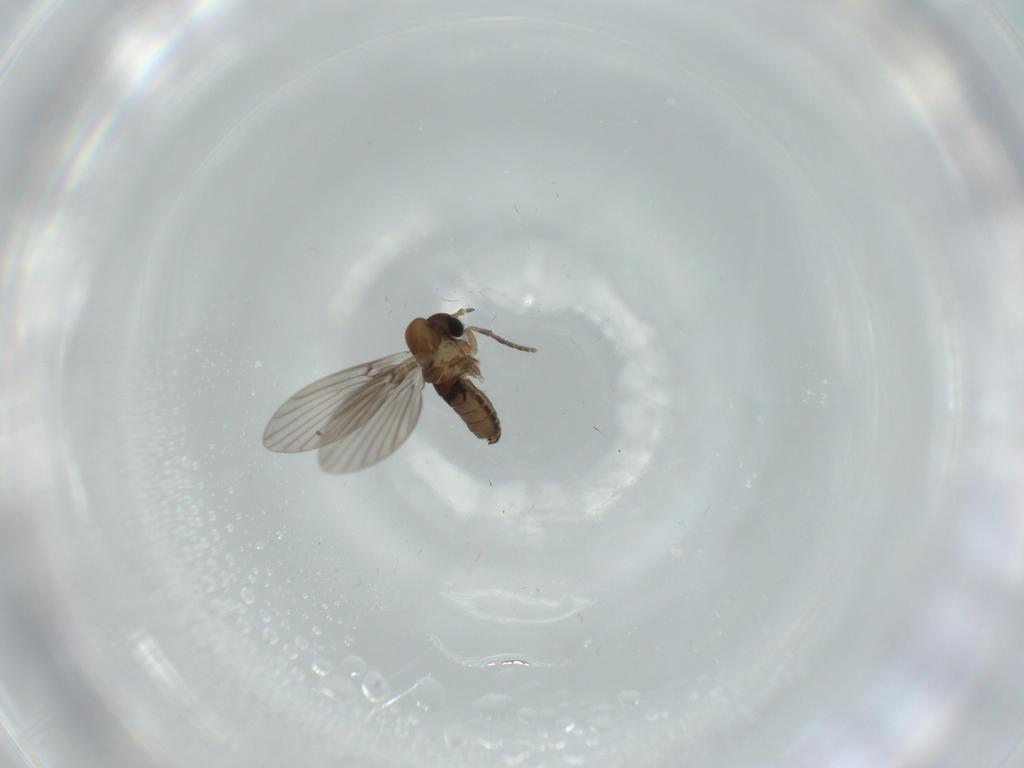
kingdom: Animalia
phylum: Arthropoda
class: Insecta
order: Diptera
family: Psychodidae
